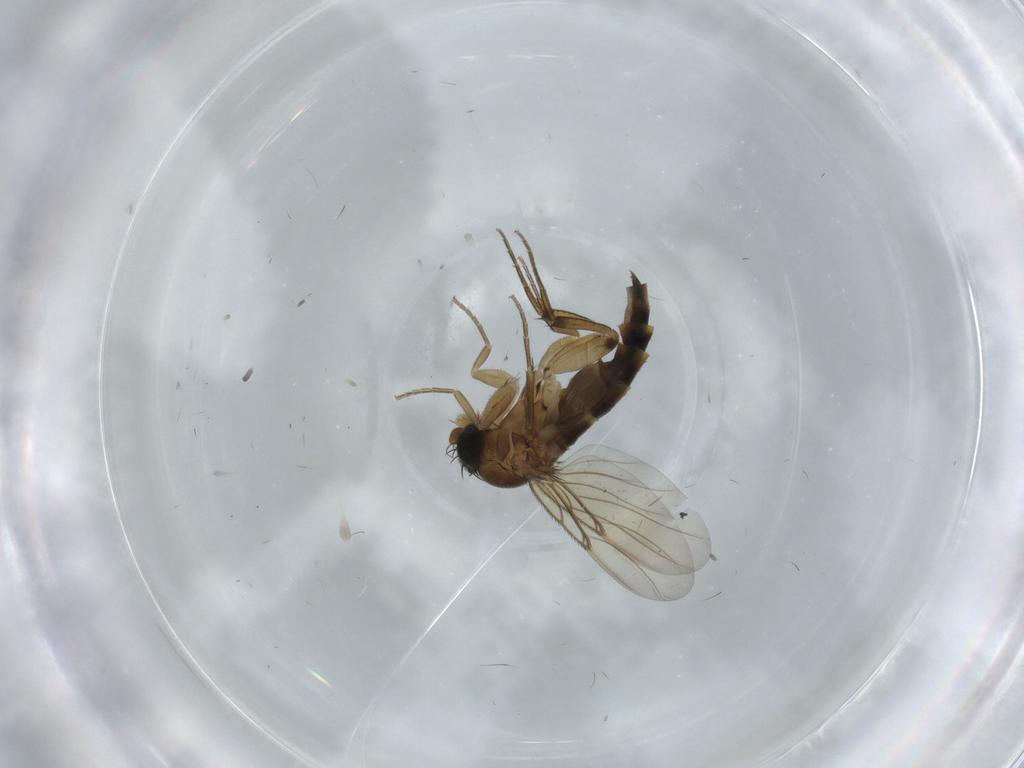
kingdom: Animalia
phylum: Arthropoda
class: Insecta
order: Diptera
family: Phoridae
